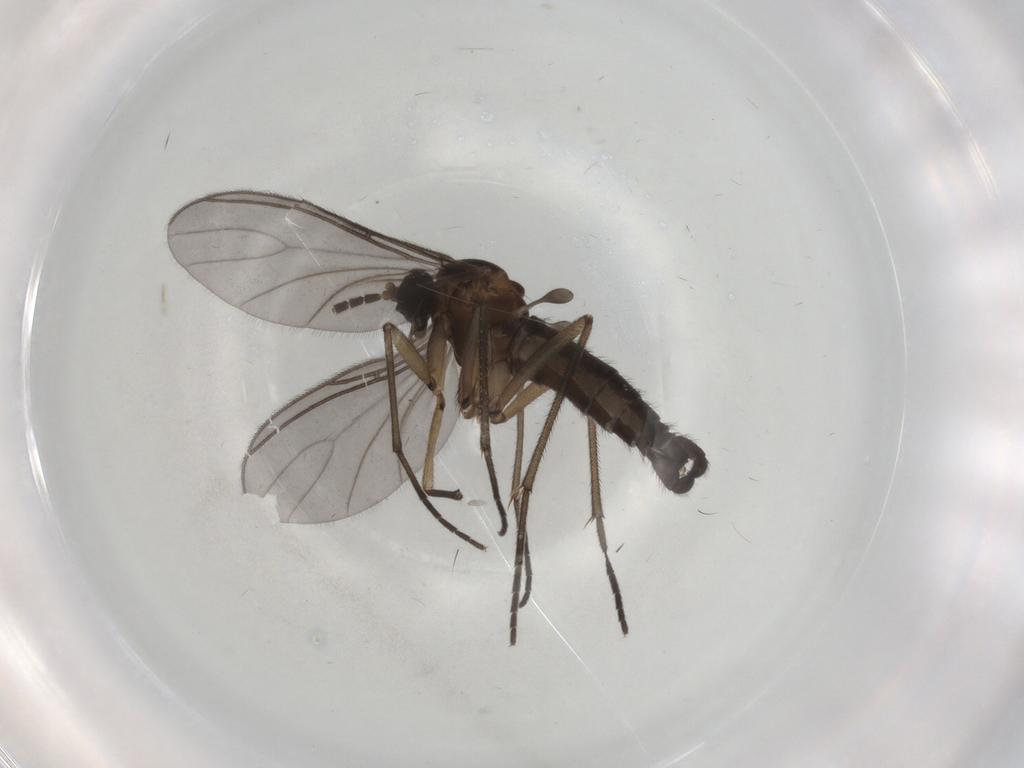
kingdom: Animalia
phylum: Arthropoda
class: Insecta
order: Diptera
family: Sciaridae
